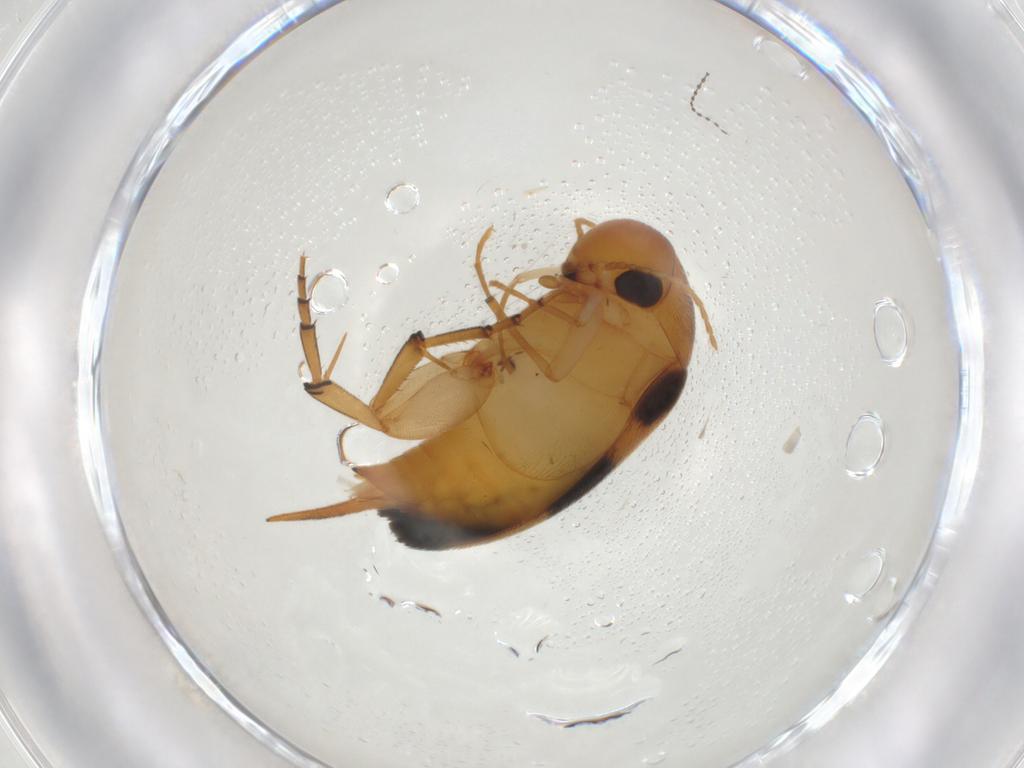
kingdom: Animalia
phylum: Arthropoda
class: Insecta
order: Coleoptera
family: Mordellidae
